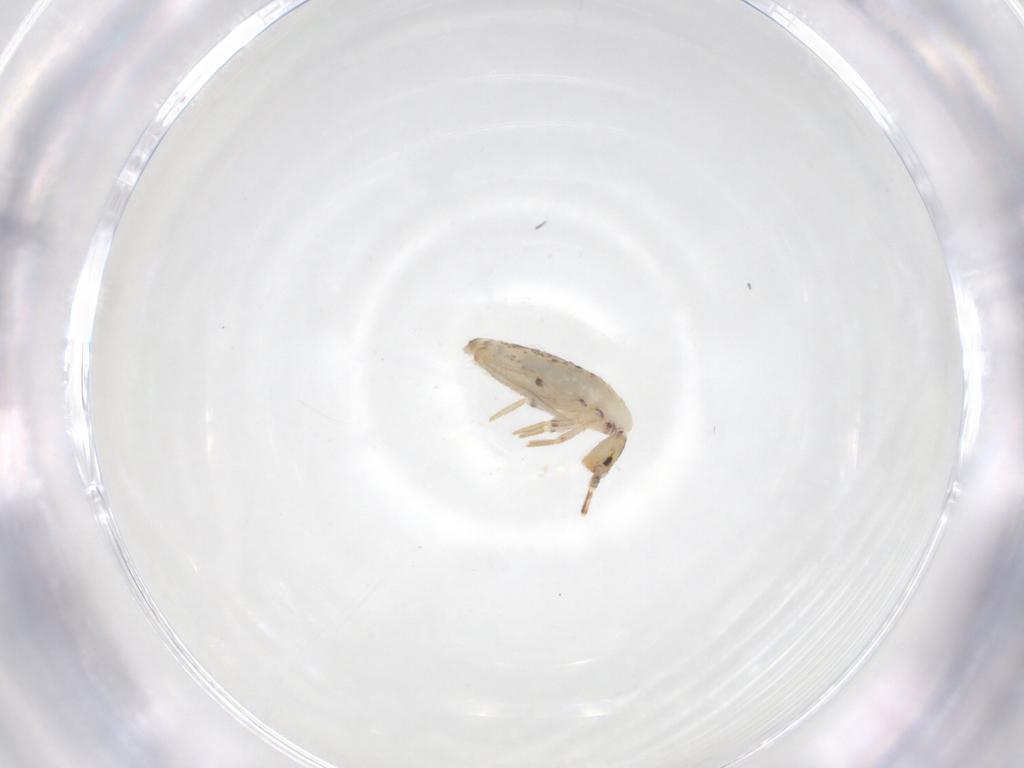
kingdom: Animalia
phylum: Arthropoda
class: Collembola
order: Entomobryomorpha
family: Entomobryidae
